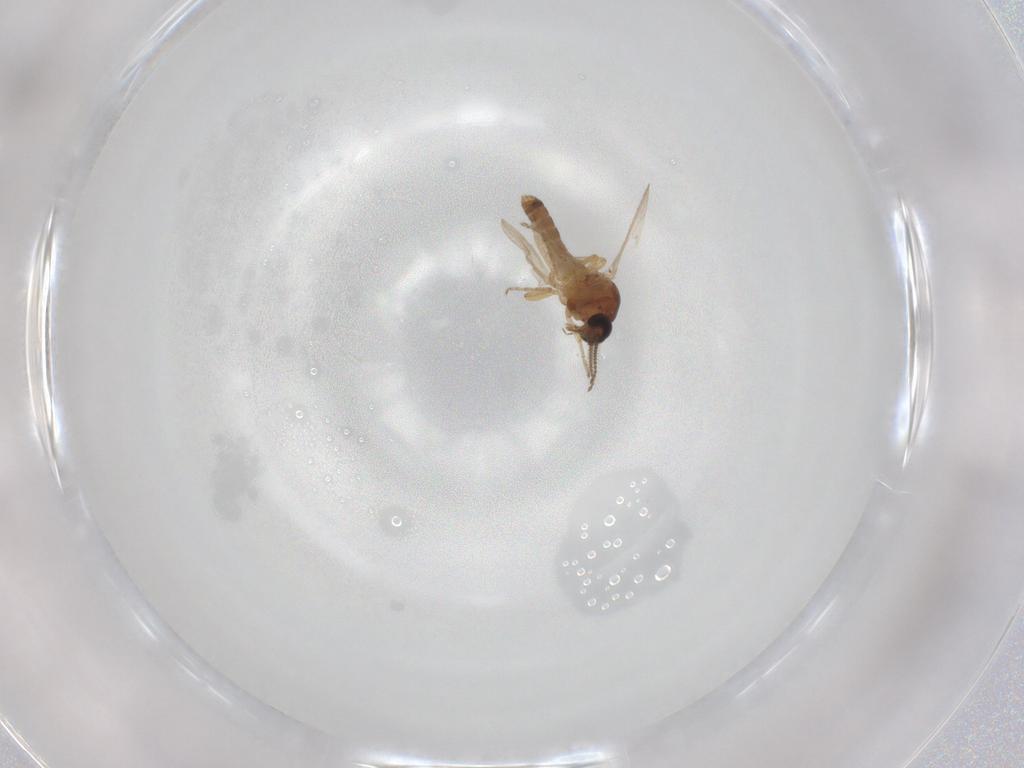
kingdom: Animalia
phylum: Arthropoda
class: Insecta
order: Diptera
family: Ceratopogonidae
